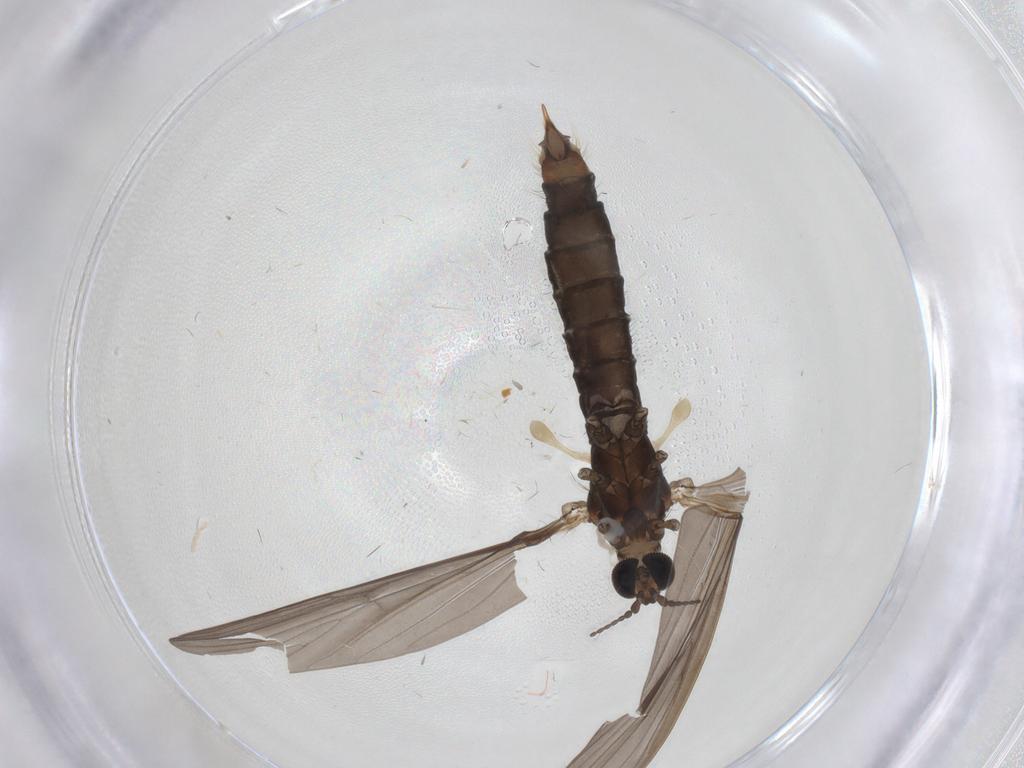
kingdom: Animalia
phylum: Arthropoda
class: Insecta
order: Diptera
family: Limoniidae
